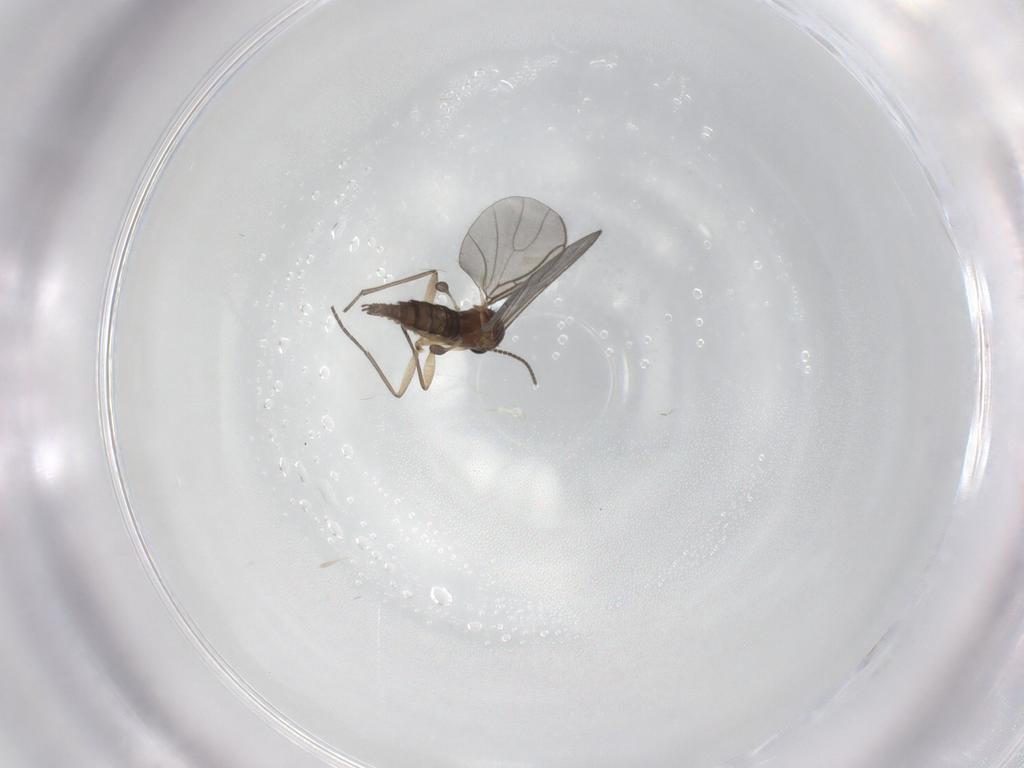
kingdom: Animalia
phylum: Arthropoda
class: Insecta
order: Diptera
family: Sciaridae
